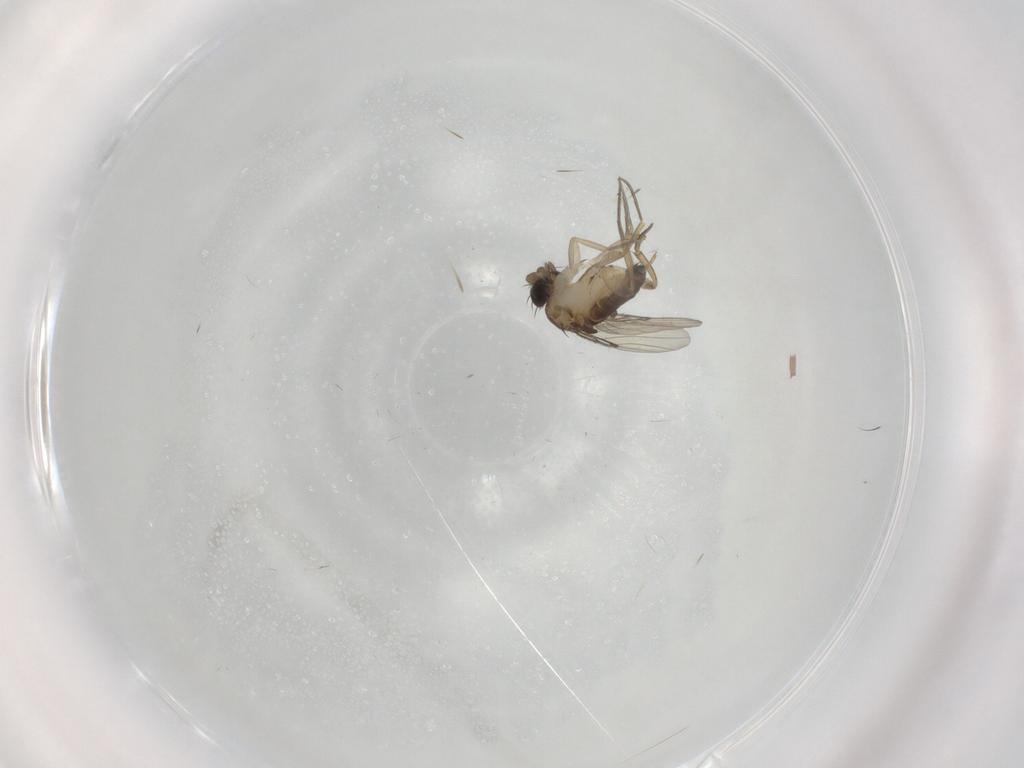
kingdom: Animalia
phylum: Arthropoda
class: Insecta
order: Diptera
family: Phoridae
